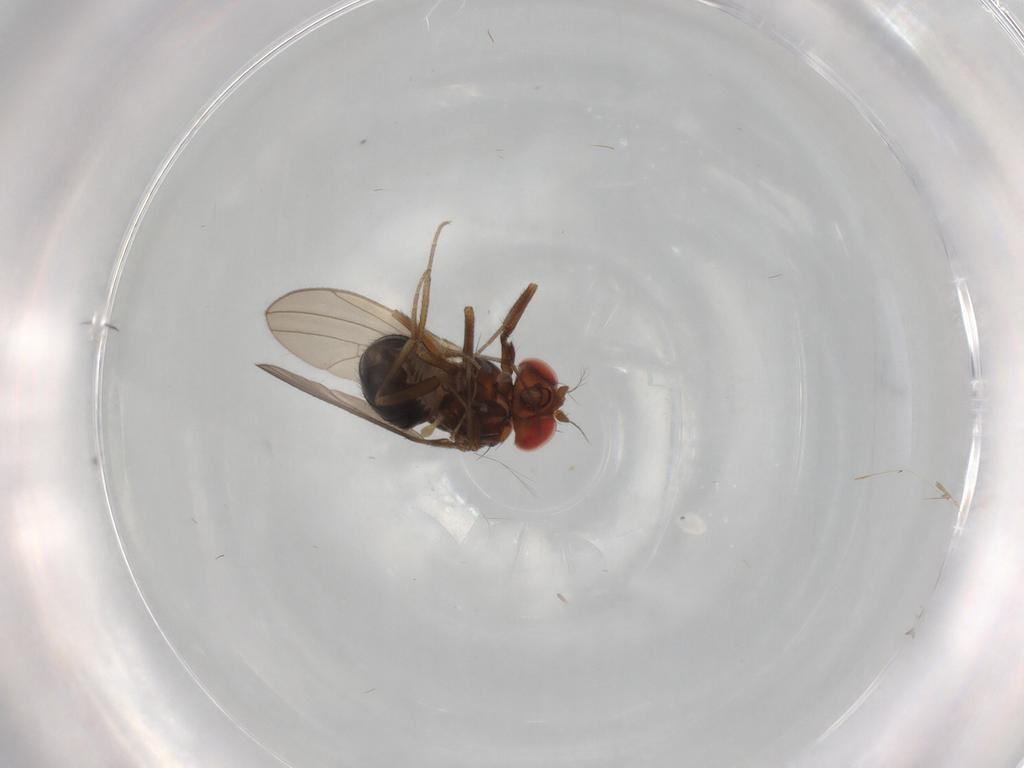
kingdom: Animalia
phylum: Arthropoda
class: Insecta
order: Diptera
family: Drosophilidae
